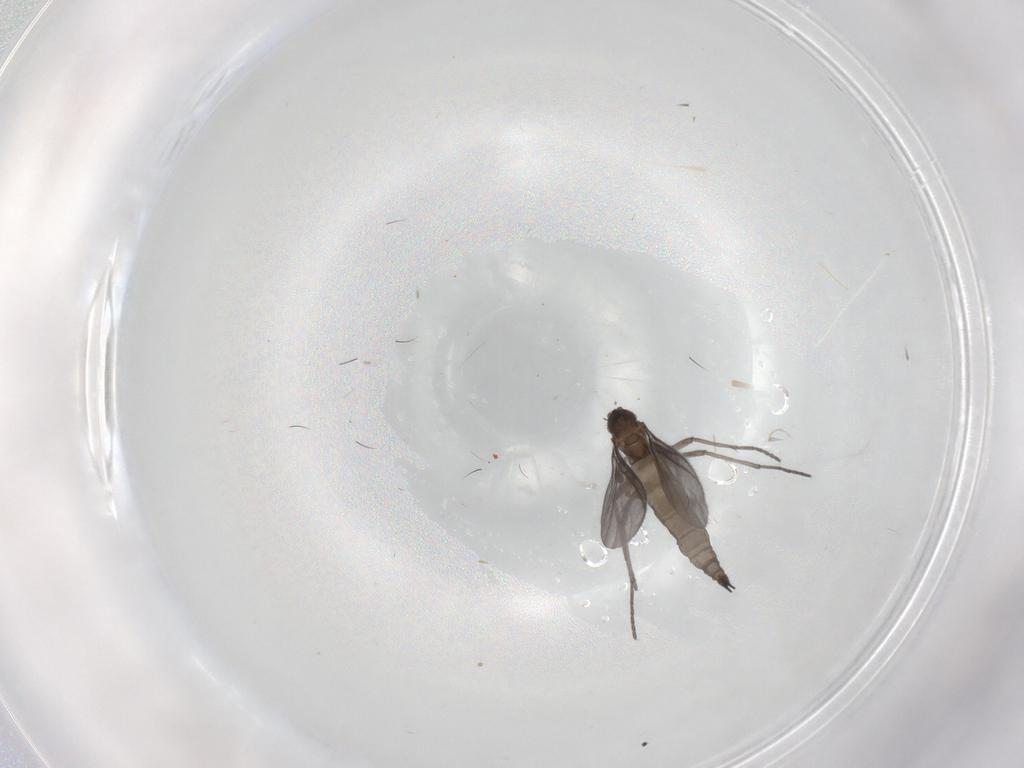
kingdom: Animalia
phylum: Arthropoda
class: Insecta
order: Diptera
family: Sciaridae
